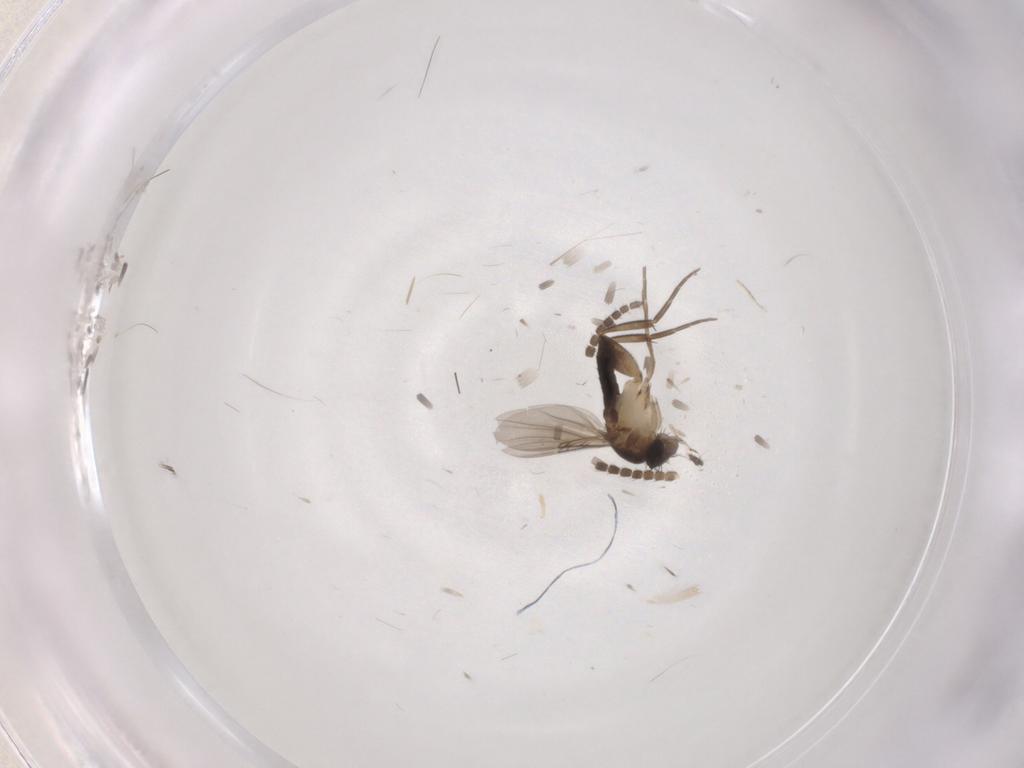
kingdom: Animalia
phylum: Arthropoda
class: Insecta
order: Diptera
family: Phoridae
